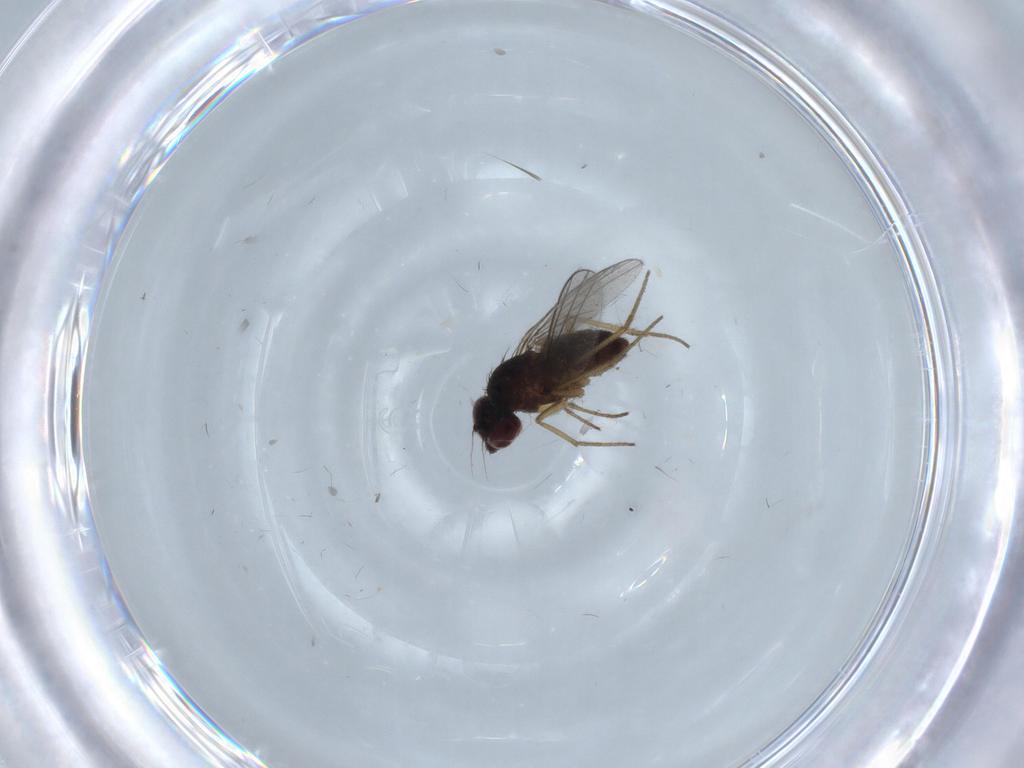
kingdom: Animalia
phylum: Arthropoda
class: Insecta
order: Diptera
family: Dolichopodidae
